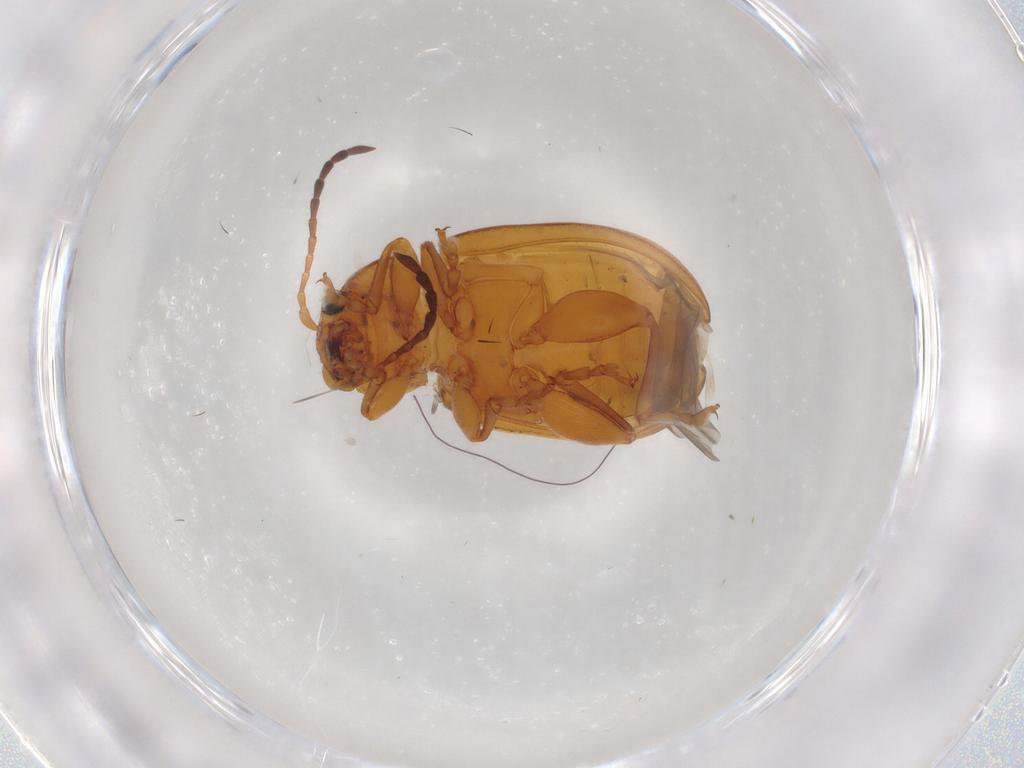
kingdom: Animalia
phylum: Arthropoda
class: Insecta
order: Coleoptera
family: Chrysomelidae
